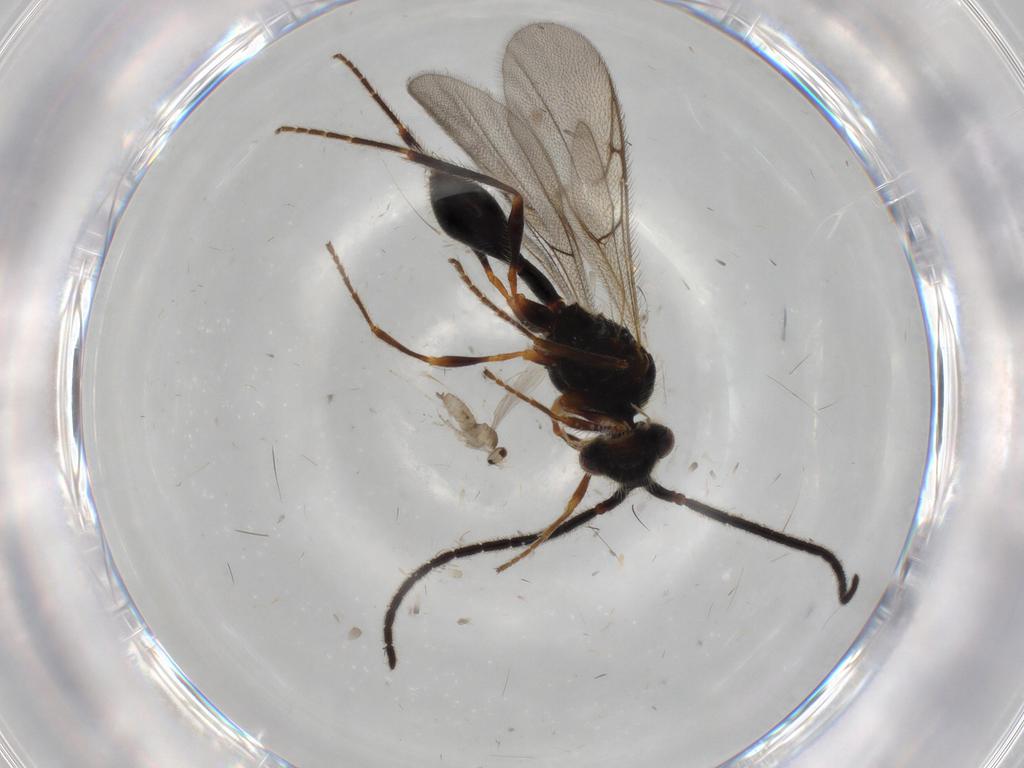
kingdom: Animalia
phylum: Arthropoda
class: Insecta
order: Diptera
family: Cecidomyiidae
